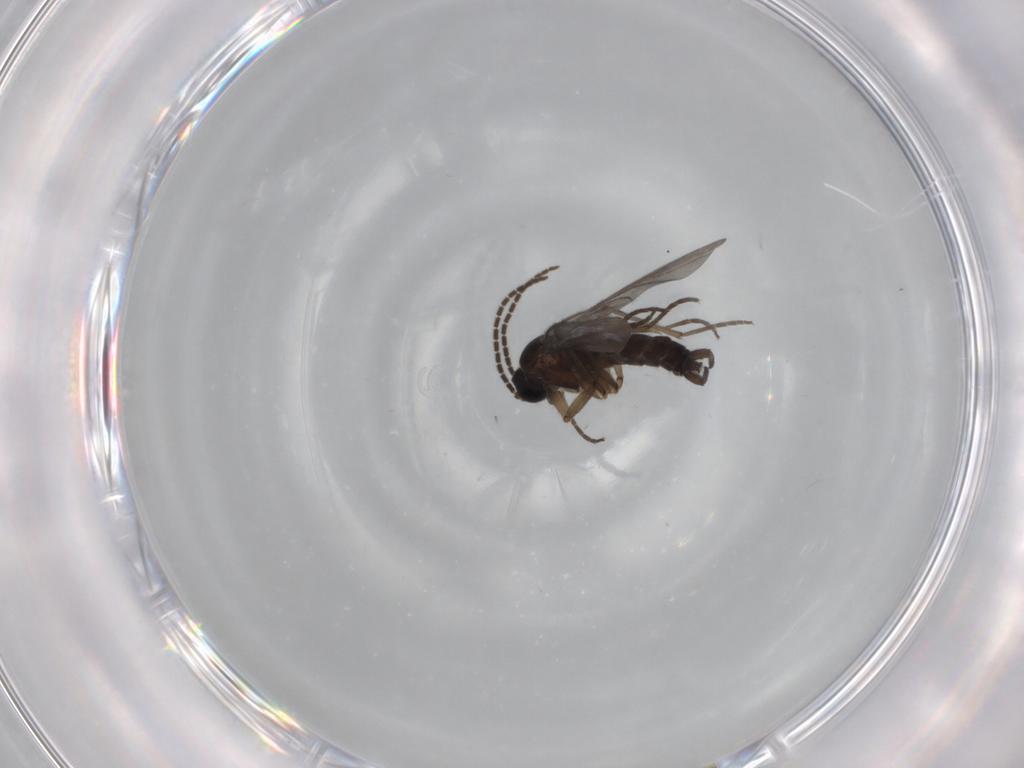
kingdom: Animalia
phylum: Arthropoda
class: Insecta
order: Diptera
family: Sciaridae
